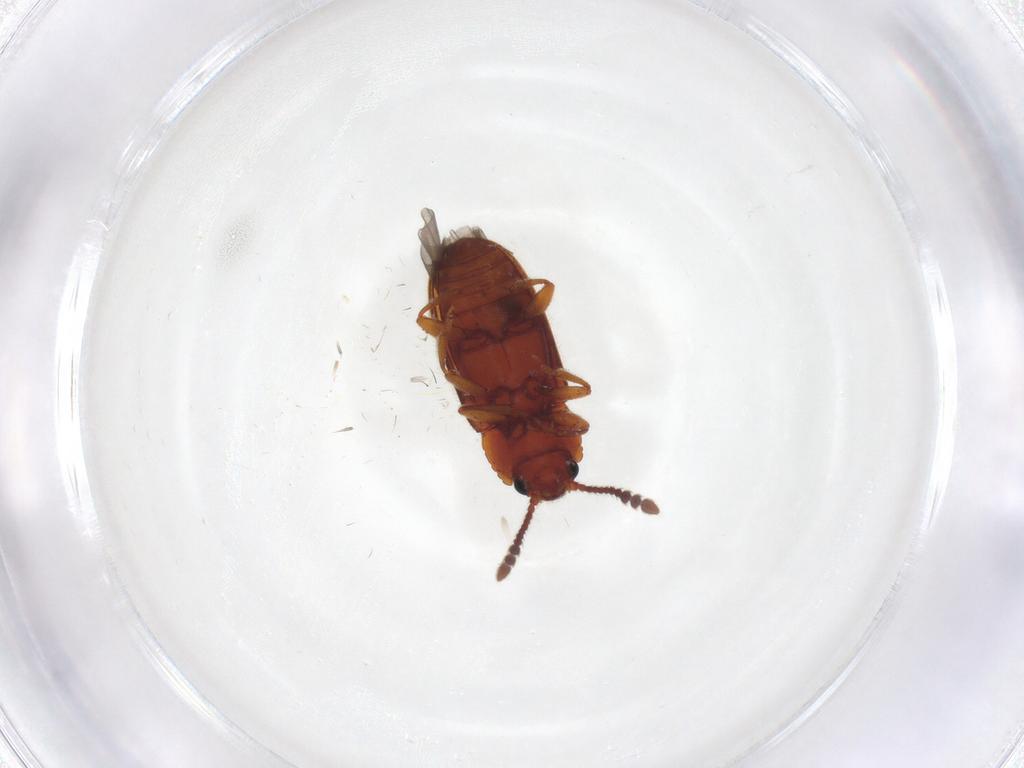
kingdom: Animalia
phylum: Arthropoda
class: Insecta
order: Coleoptera
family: Erotylidae
